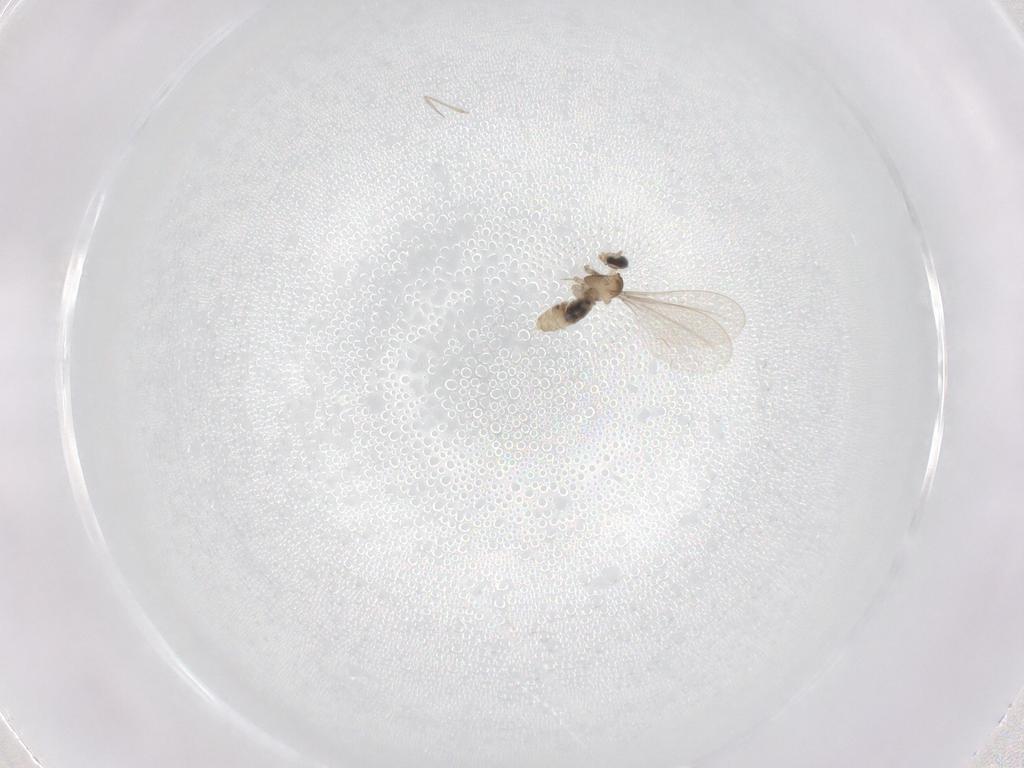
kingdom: Animalia
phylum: Arthropoda
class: Insecta
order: Diptera
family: Cecidomyiidae
